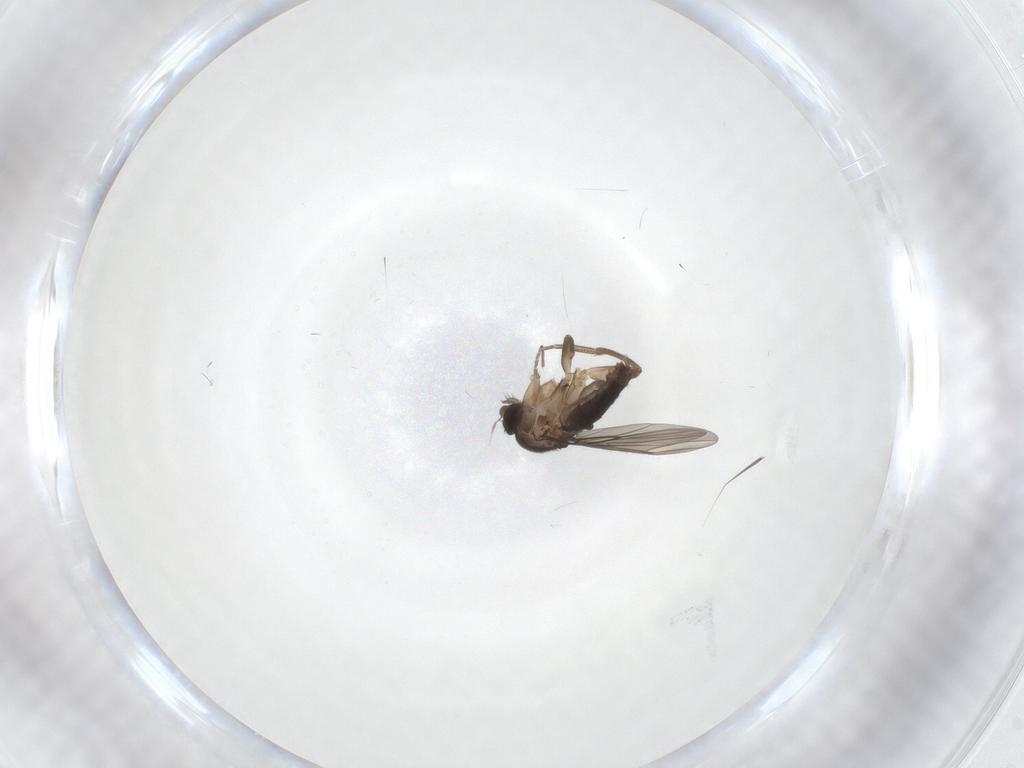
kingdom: Animalia
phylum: Arthropoda
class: Insecta
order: Diptera
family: Phoridae
